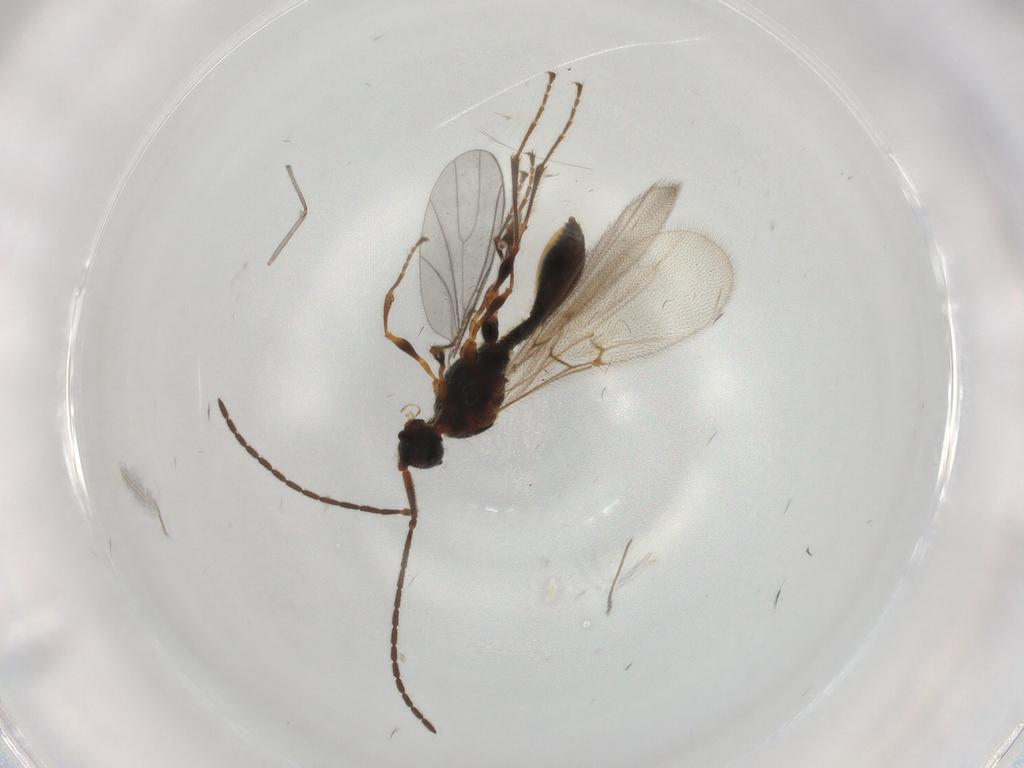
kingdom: Animalia
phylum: Arthropoda
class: Insecta
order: Hymenoptera
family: Diapriidae
